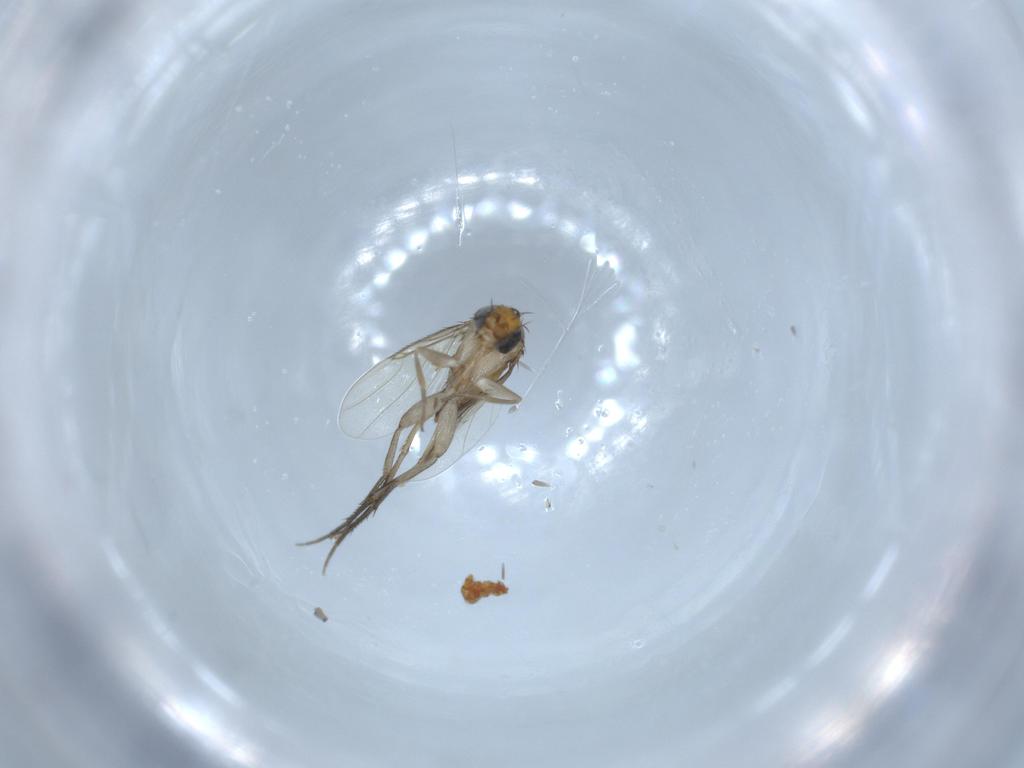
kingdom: Animalia
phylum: Arthropoda
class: Insecta
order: Diptera
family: Phoridae
